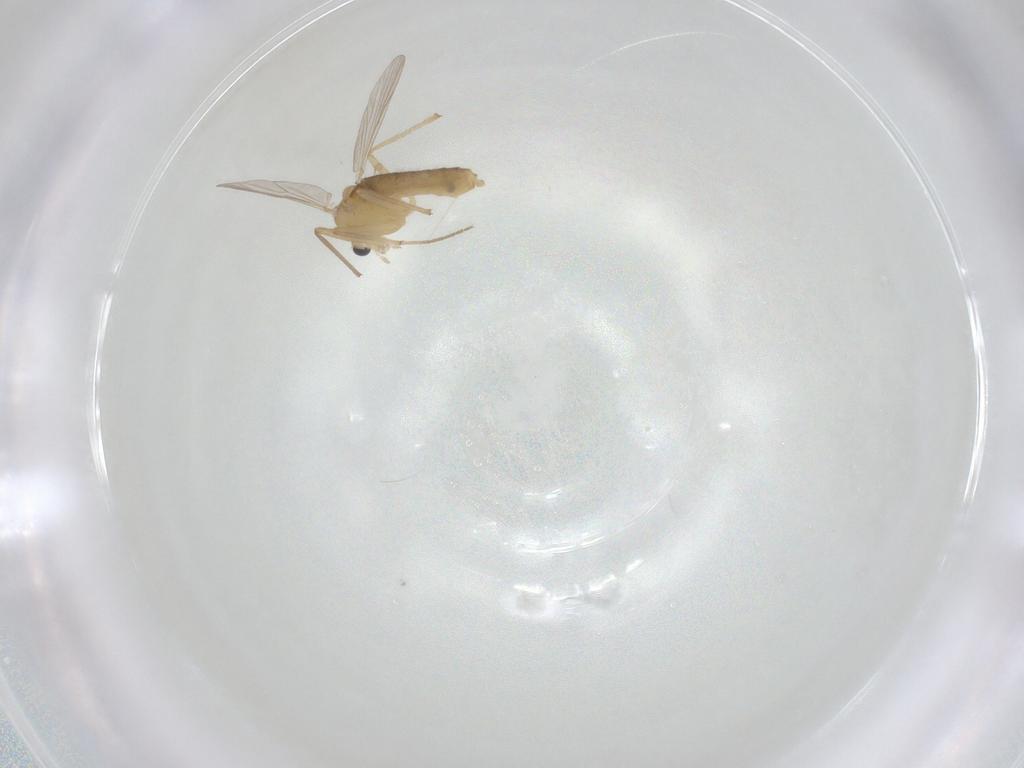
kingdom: Animalia
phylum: Arthropoda
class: Insecta
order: Diptera
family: Chironomidae
